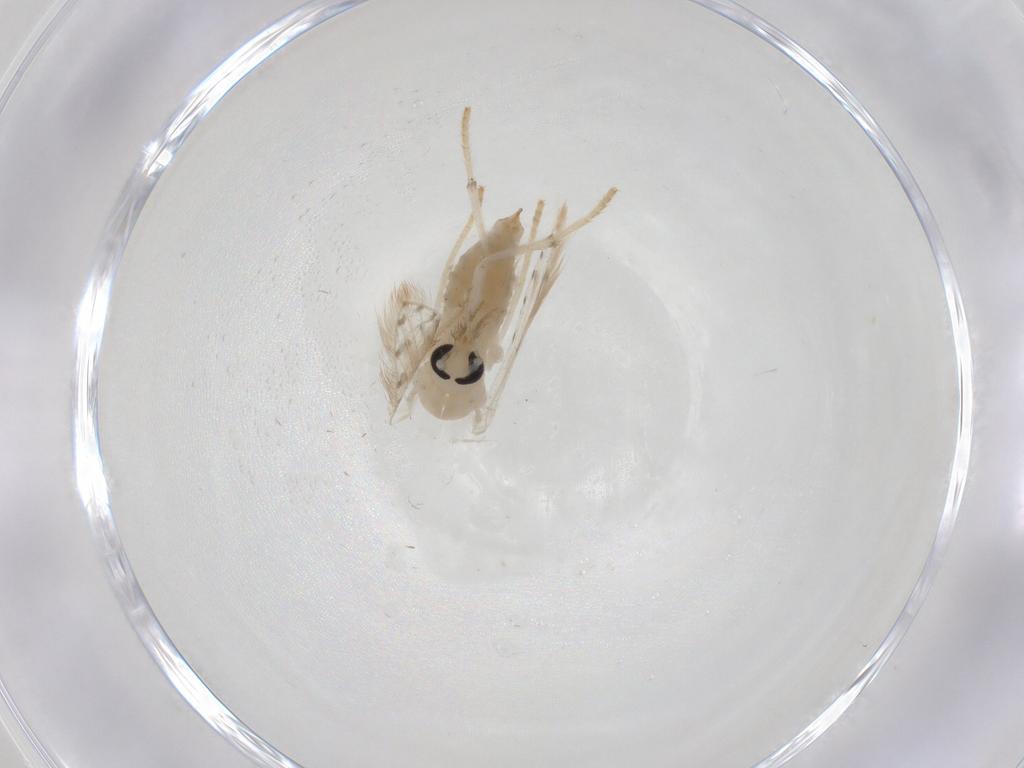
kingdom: Animalia
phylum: Arthropoda
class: Insecta
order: Diptera
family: Psychodidae
